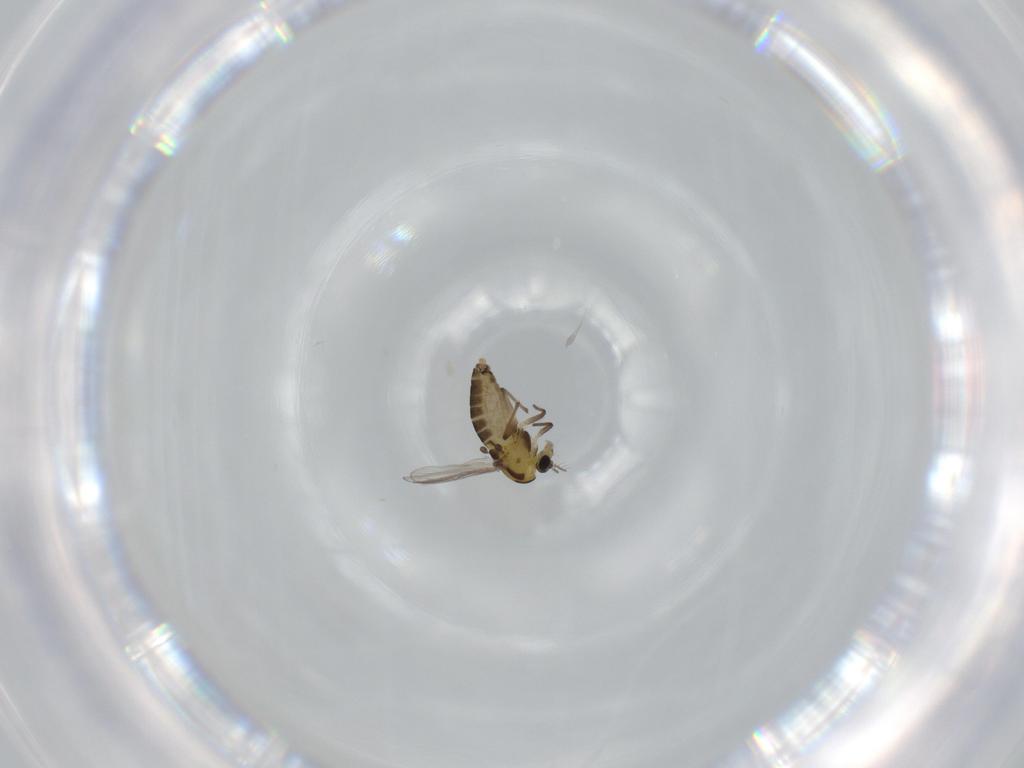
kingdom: Animalia
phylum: Arthropoda
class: Insecta
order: Diptera
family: Chironomidae
